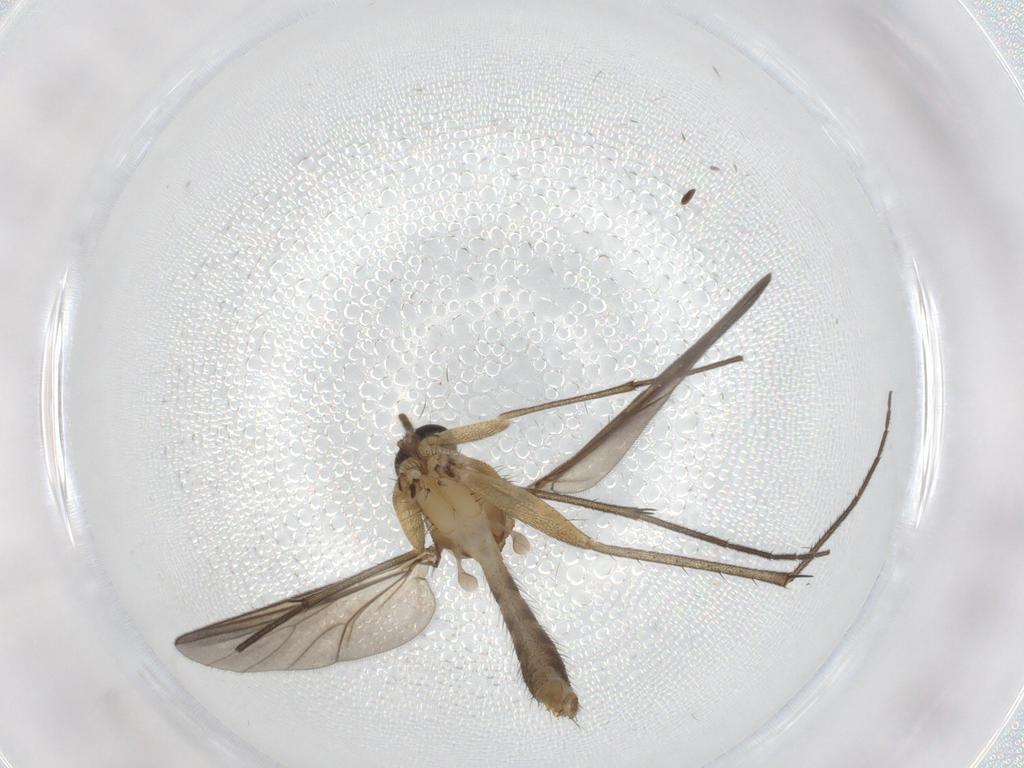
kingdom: Animalia
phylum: Arthropoda
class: Insecta
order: Diptera
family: Mycetophilidae
